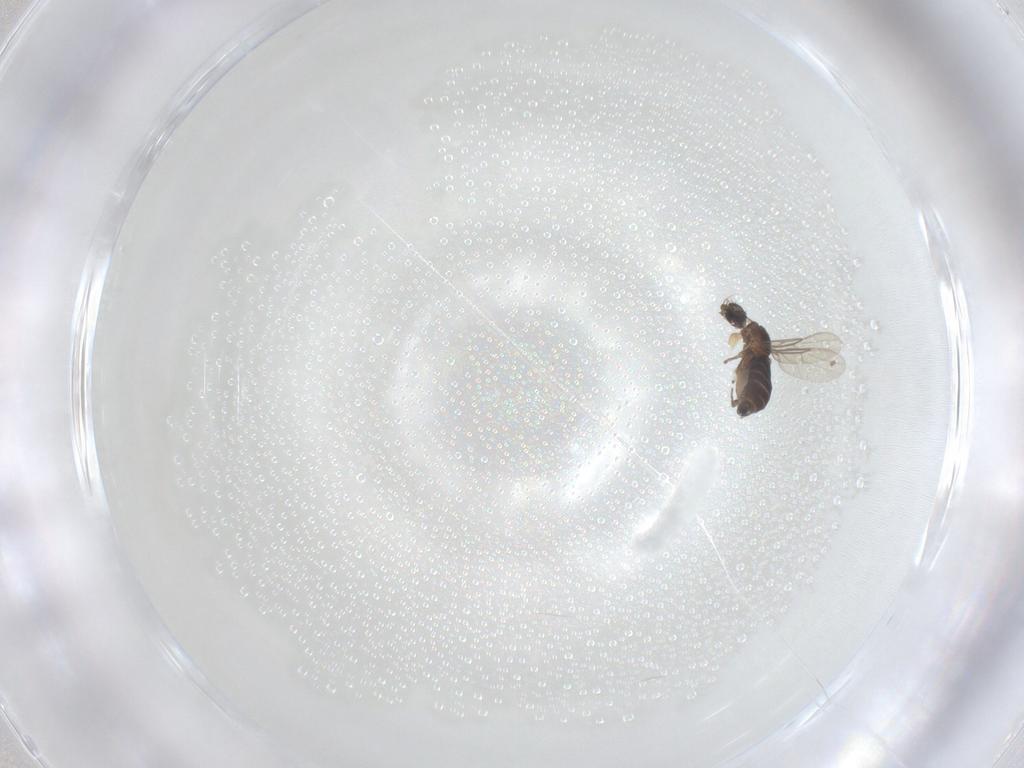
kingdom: Animalia
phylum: Arthropoda
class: Insecta
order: Diptera
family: Phoridae
